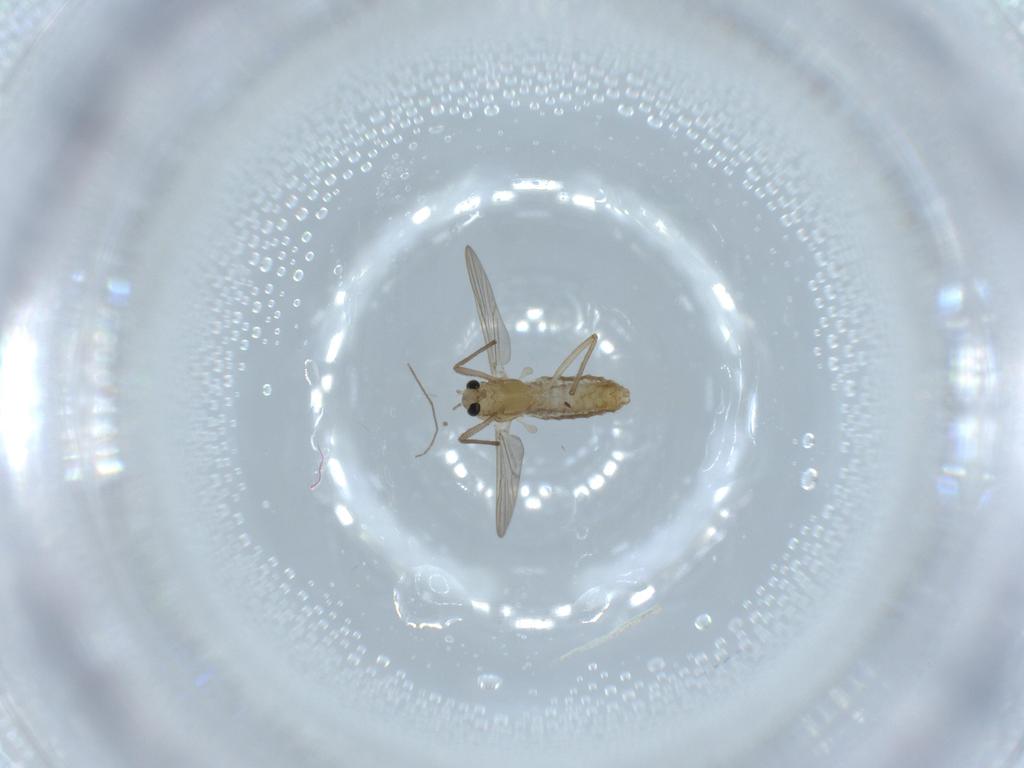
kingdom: Animalia
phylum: Arthropoda
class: Insecta
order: Diptera
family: Chironomidae
